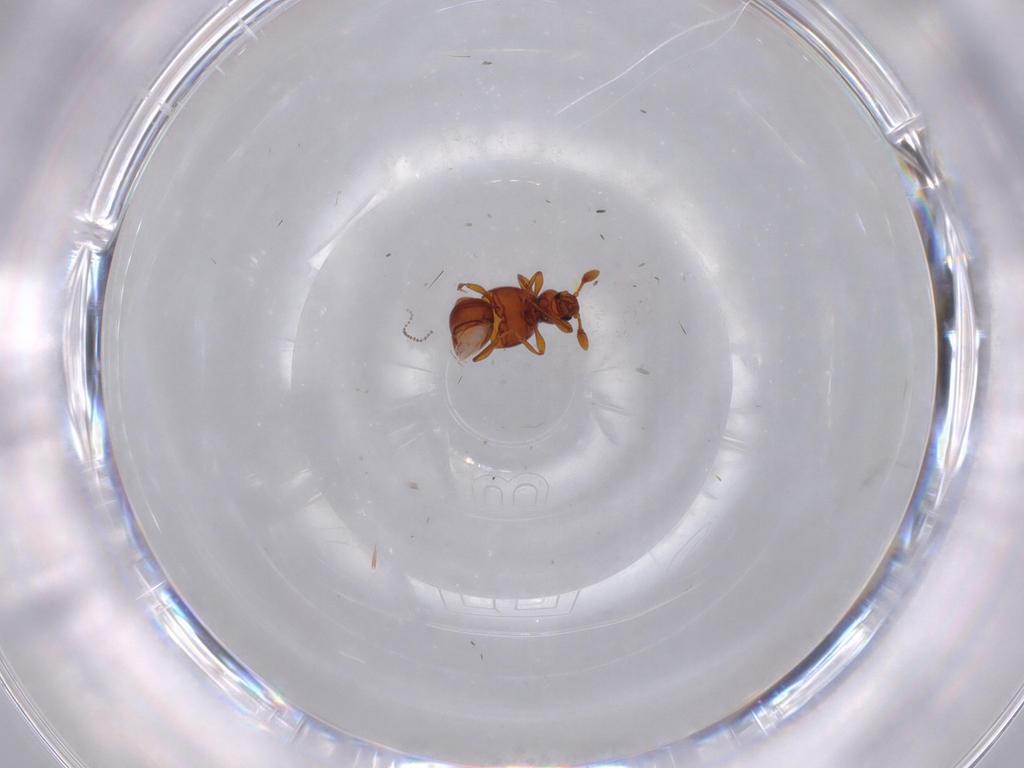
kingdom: Animalia
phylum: Arthropoda
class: Insecta
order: Coleoptera
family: Staphylinidae
